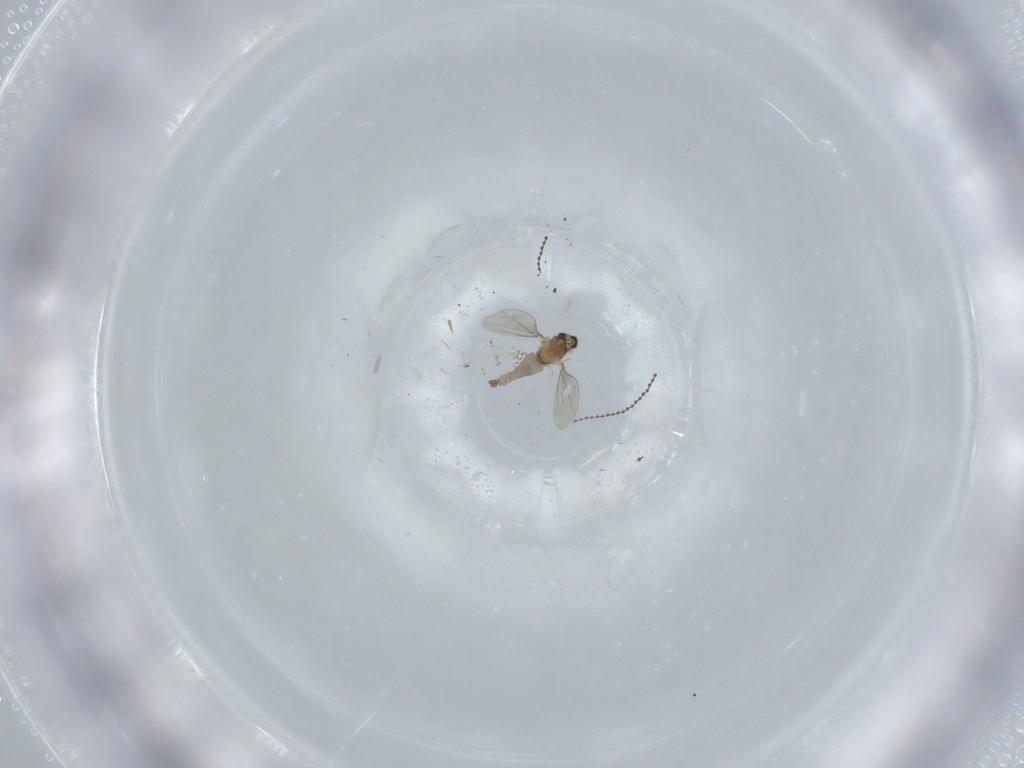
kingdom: Animalia
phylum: Arthropoda
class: Insecta
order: Diptera
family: Cecidomyiidae
